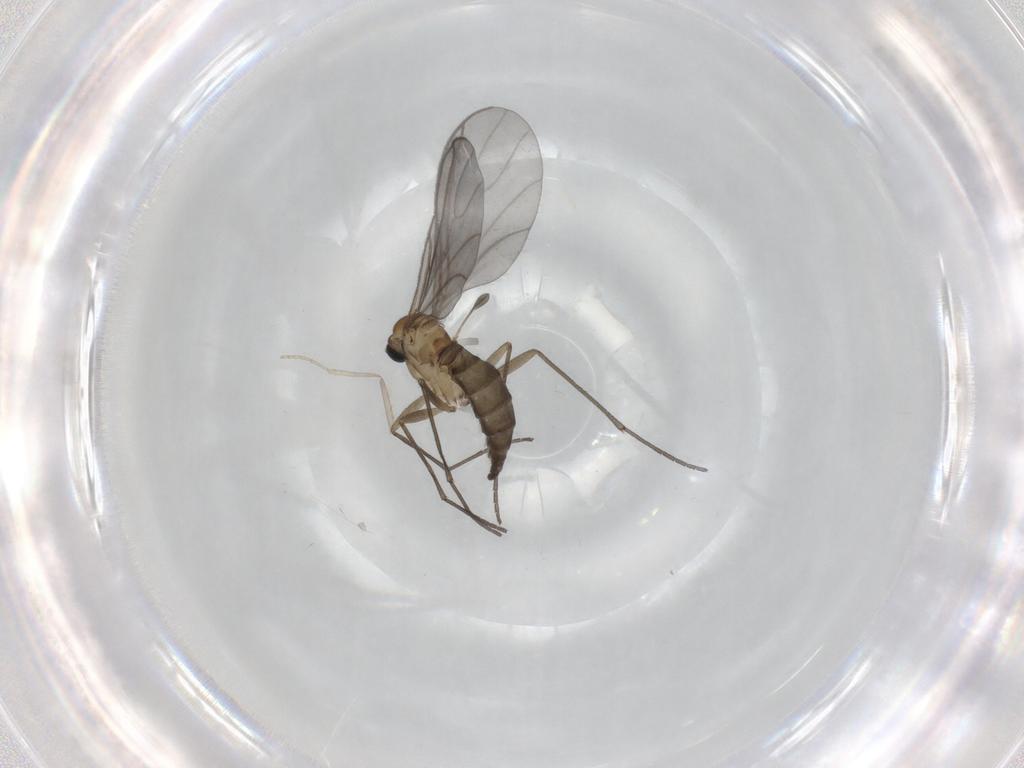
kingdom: Animalia
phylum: Arthropoda
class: Insecta
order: Diptera
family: Sciaridae
